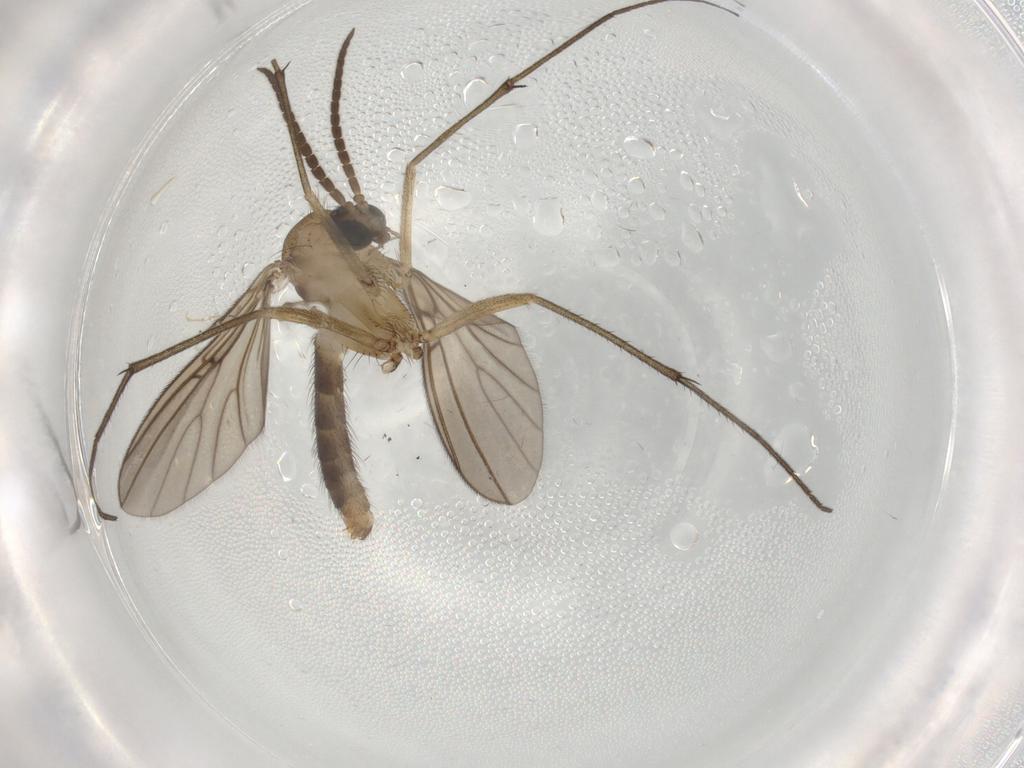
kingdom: Animalia
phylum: Arthropoda
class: Insecta
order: Diptera
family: Mycetophilidae
